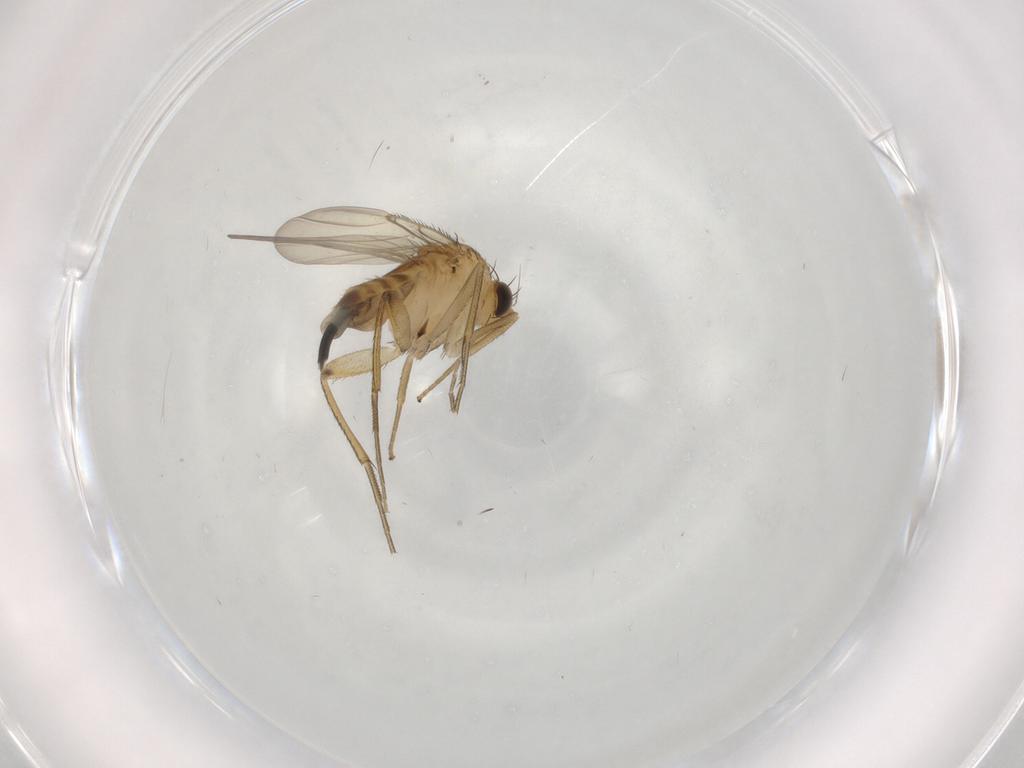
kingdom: Animalia
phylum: Arthropoda
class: Insecta
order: Diptera
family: Phoridae
